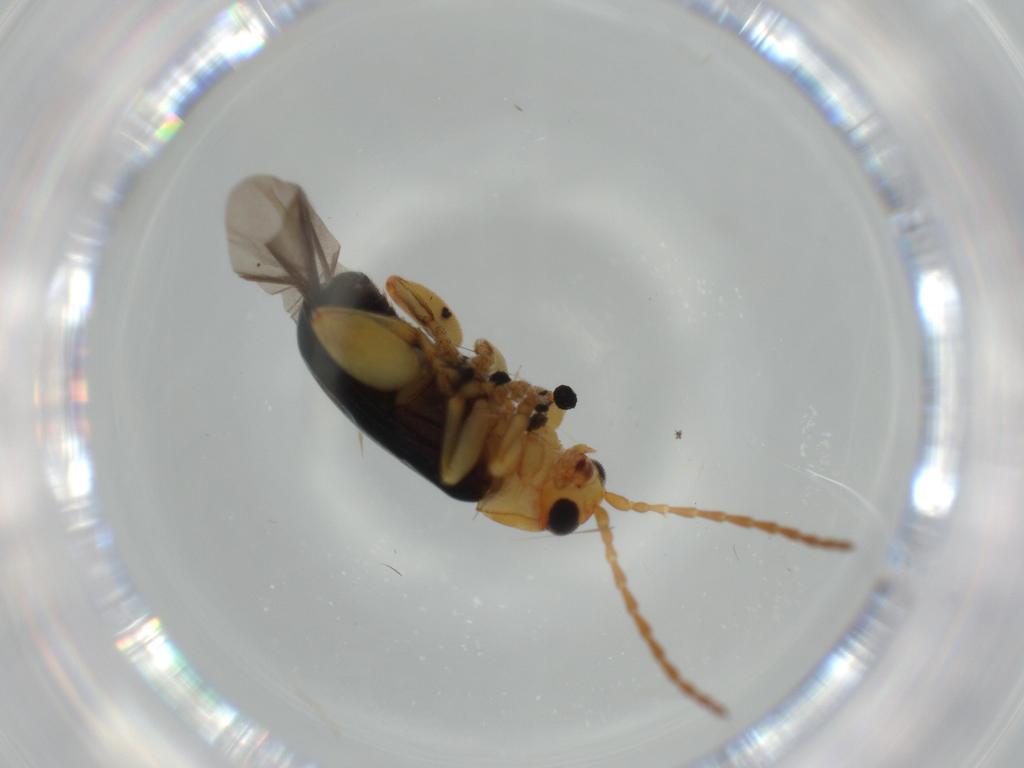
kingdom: Animalia
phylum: Arthropoda
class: Insecta
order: Coleoptera
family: Chrysomelidae
